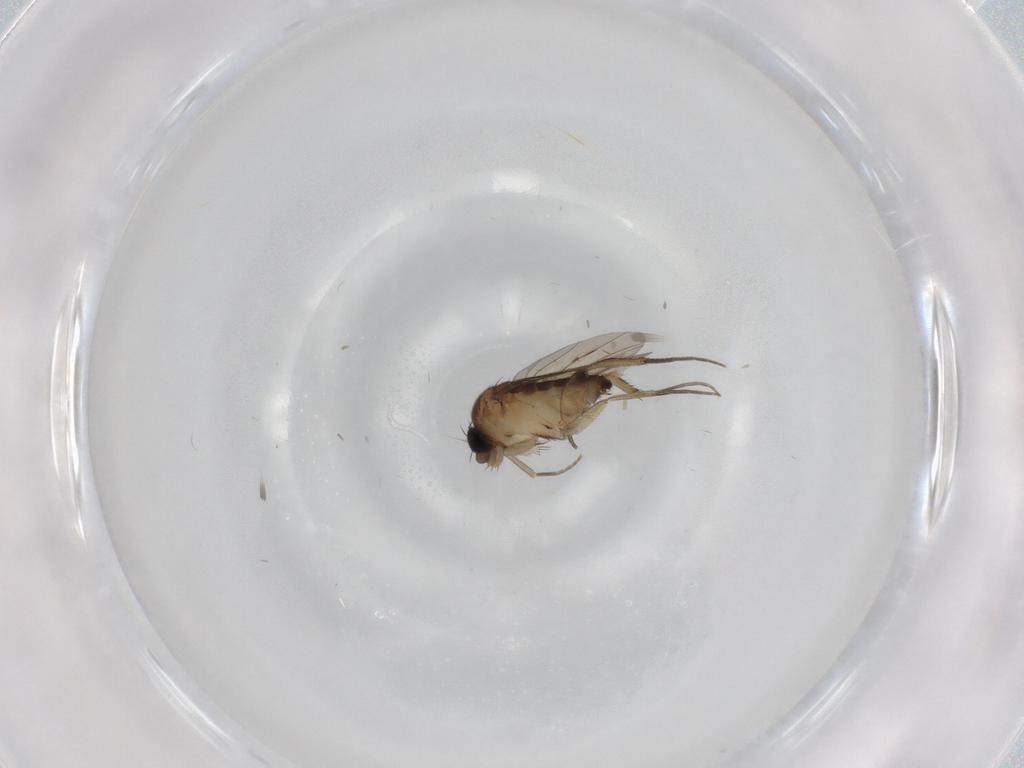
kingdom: Animalia
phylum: Arthropoda
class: Insecta
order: Diptera
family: Phoridae
